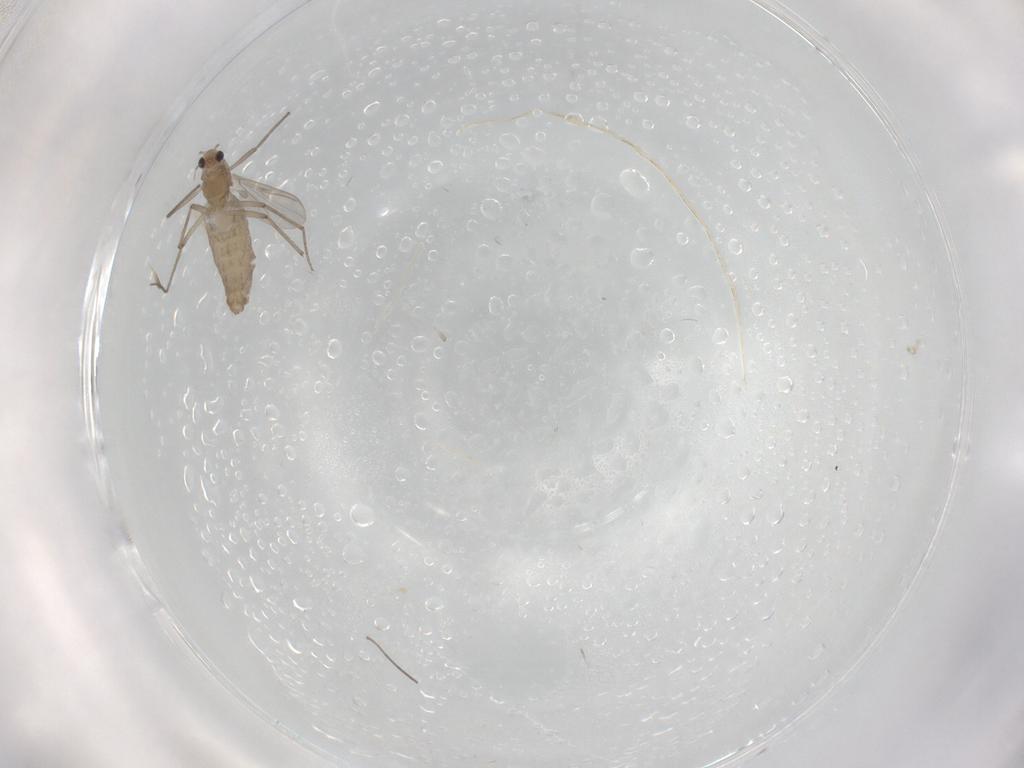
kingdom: Animalia
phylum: Arthropoda
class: Insecta
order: Diptera
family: Chironomidae
